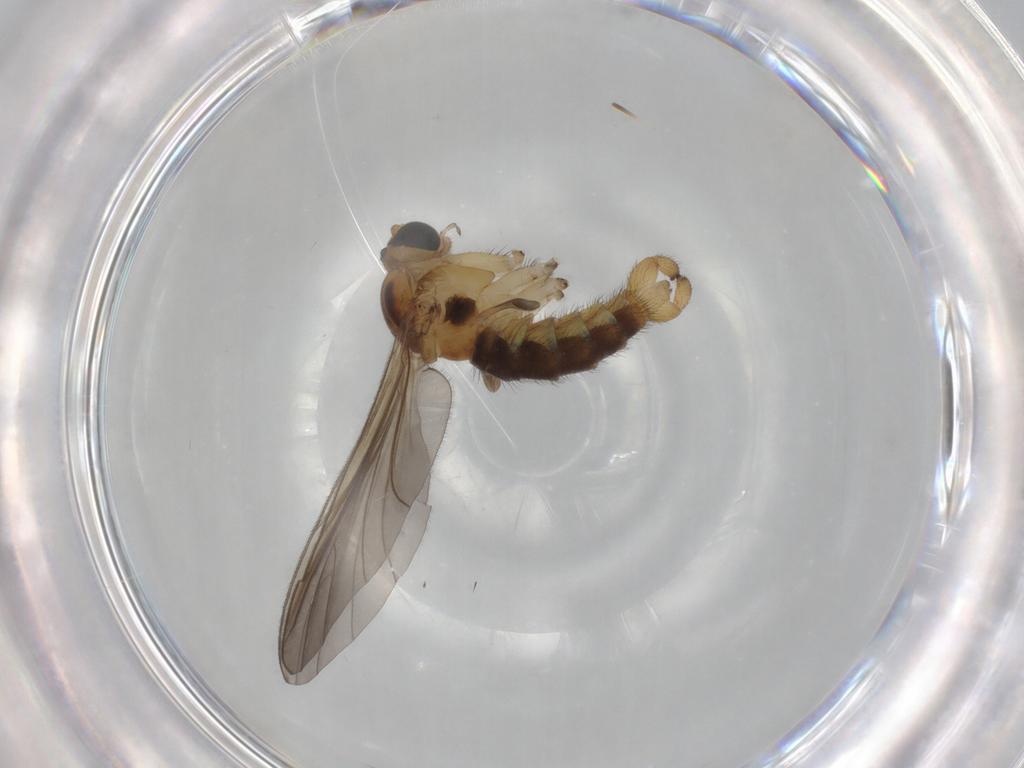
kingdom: Animalia
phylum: Arthropoda
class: Insecta
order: Diptera
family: Sciaridae
